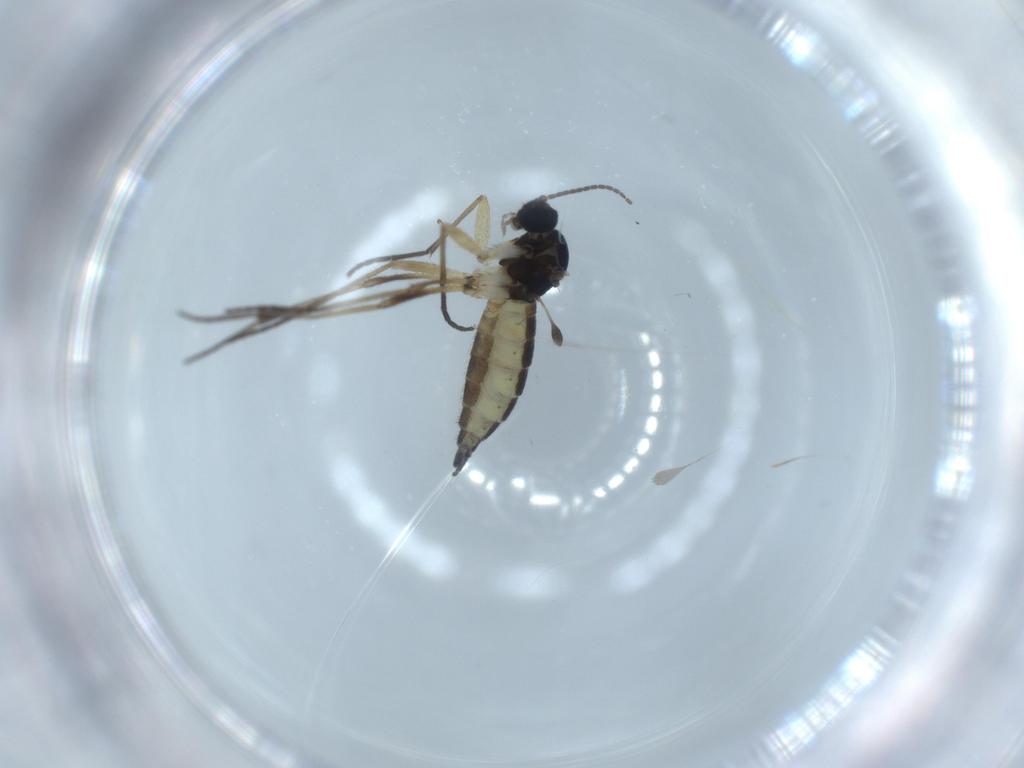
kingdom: Animalia
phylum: Arthropoda
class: Insecta
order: Diptera
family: Sciaridae
